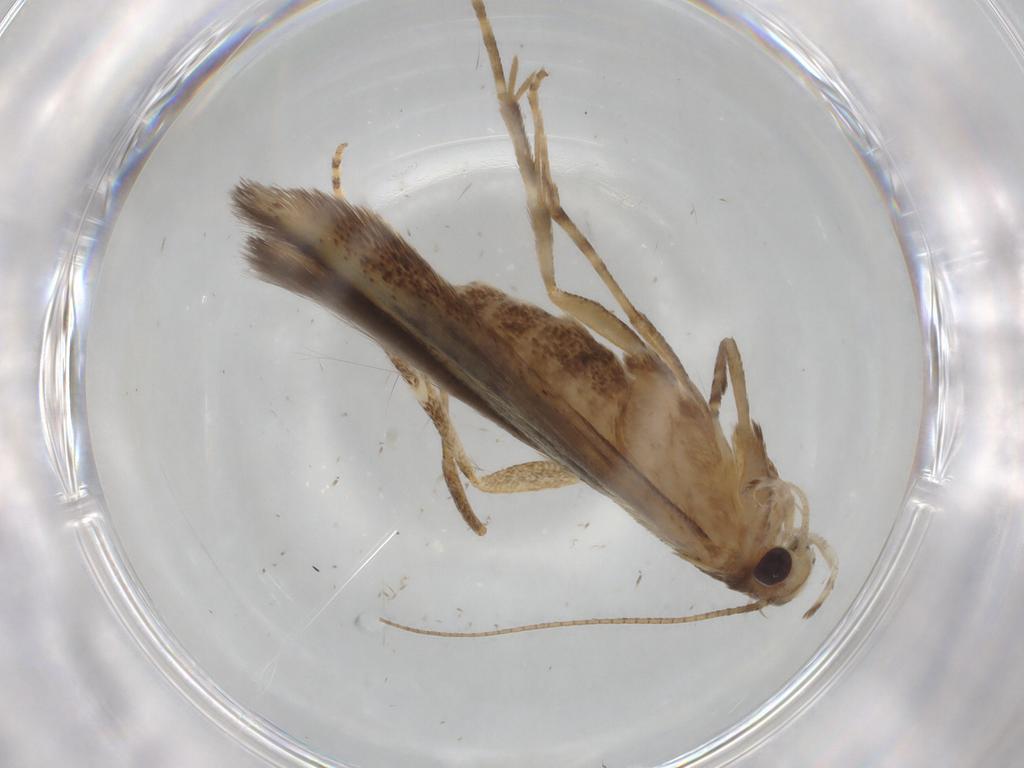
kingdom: Animalia
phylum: Arthropoda
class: Insecta
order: Lepidoptera
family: Batrachedridae
